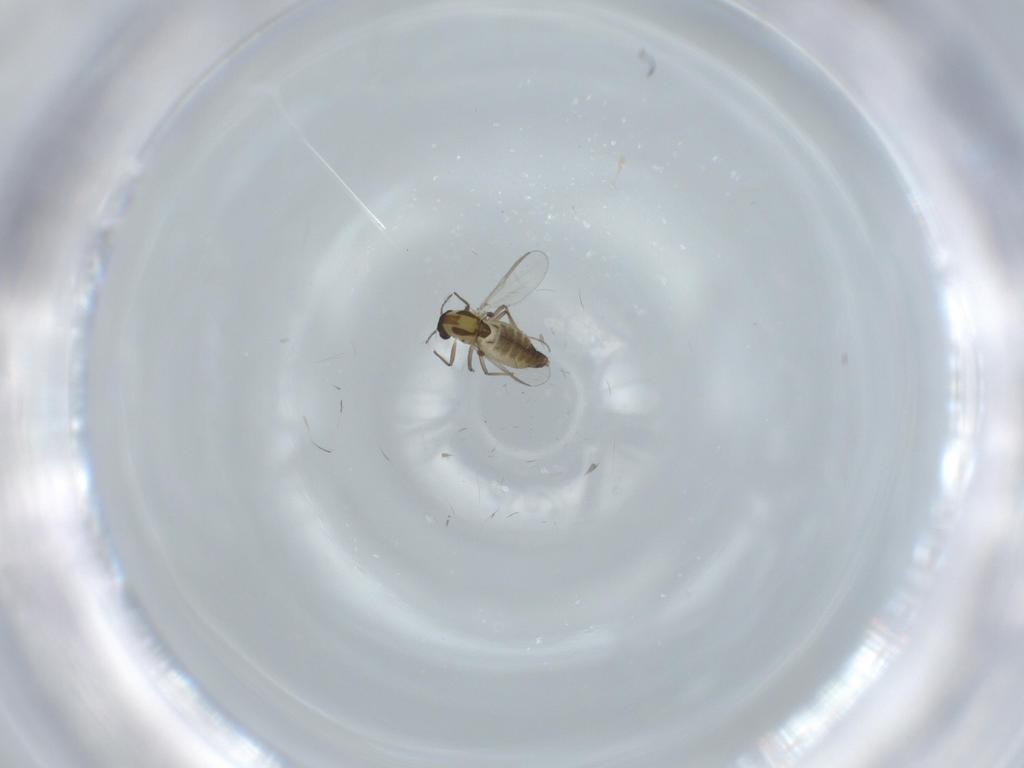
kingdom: Animalia
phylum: Arthropoda
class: Insecta
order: Diptera
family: Chironomidae
